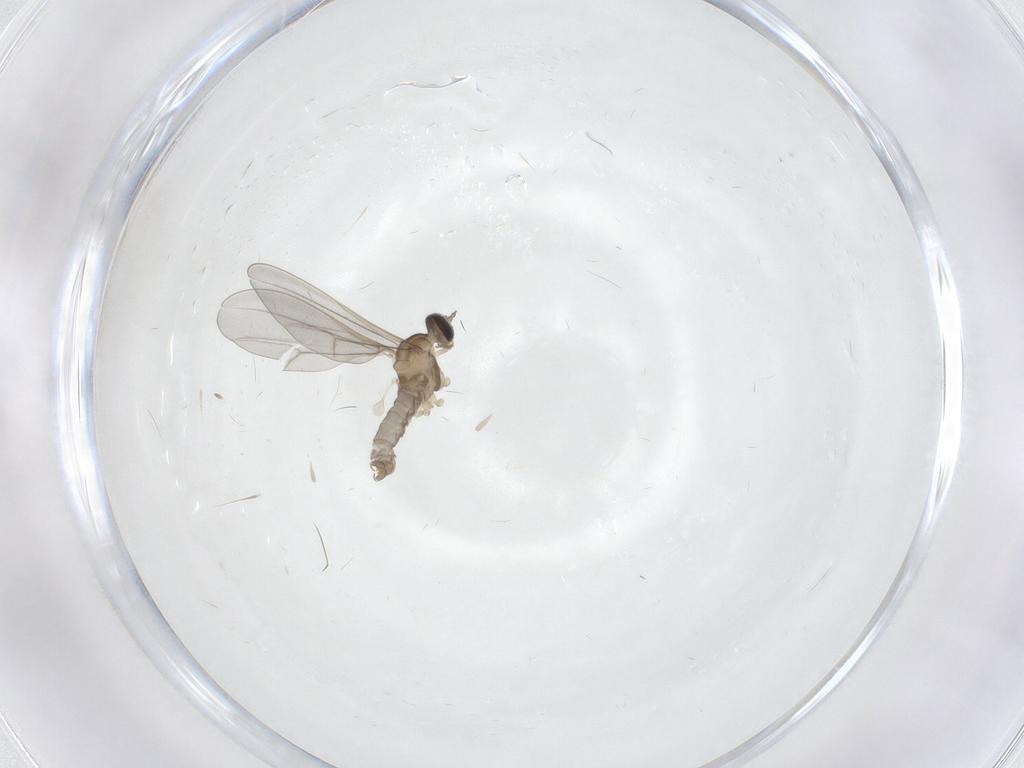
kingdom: Animalia
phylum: Arthropoda
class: Insecta
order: Diptera
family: Cecidomyiidae
